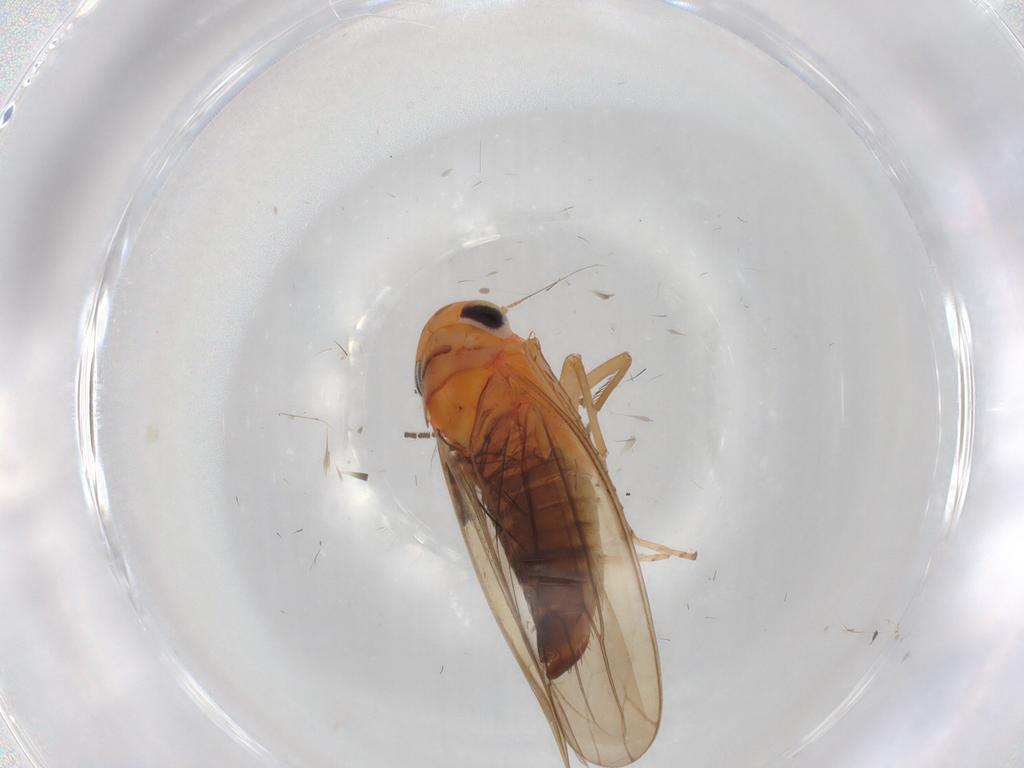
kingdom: Animalia
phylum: Arthropoda
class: Insecta
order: Hemiptera
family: Cicadellidae
